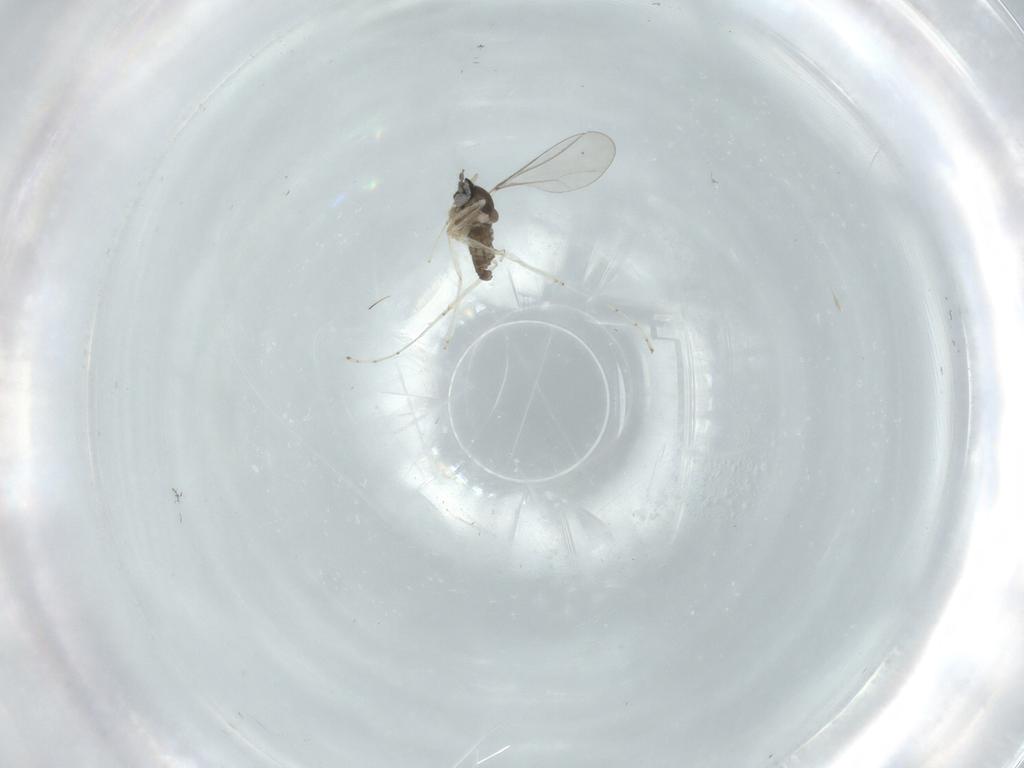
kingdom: Animalia
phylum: Arthropoda
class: Insecta
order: Diptera
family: Cecidomyiidae
